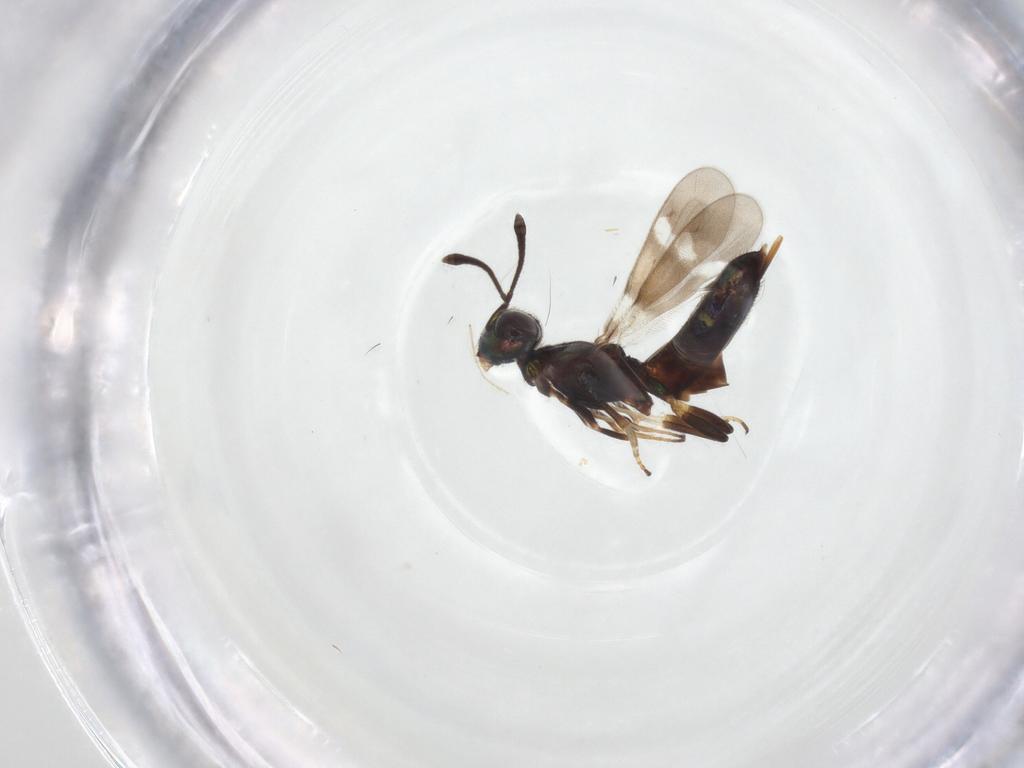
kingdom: Animalia
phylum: Arthropoda
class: Insecta
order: Hymenoptera
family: Eupelmidae
